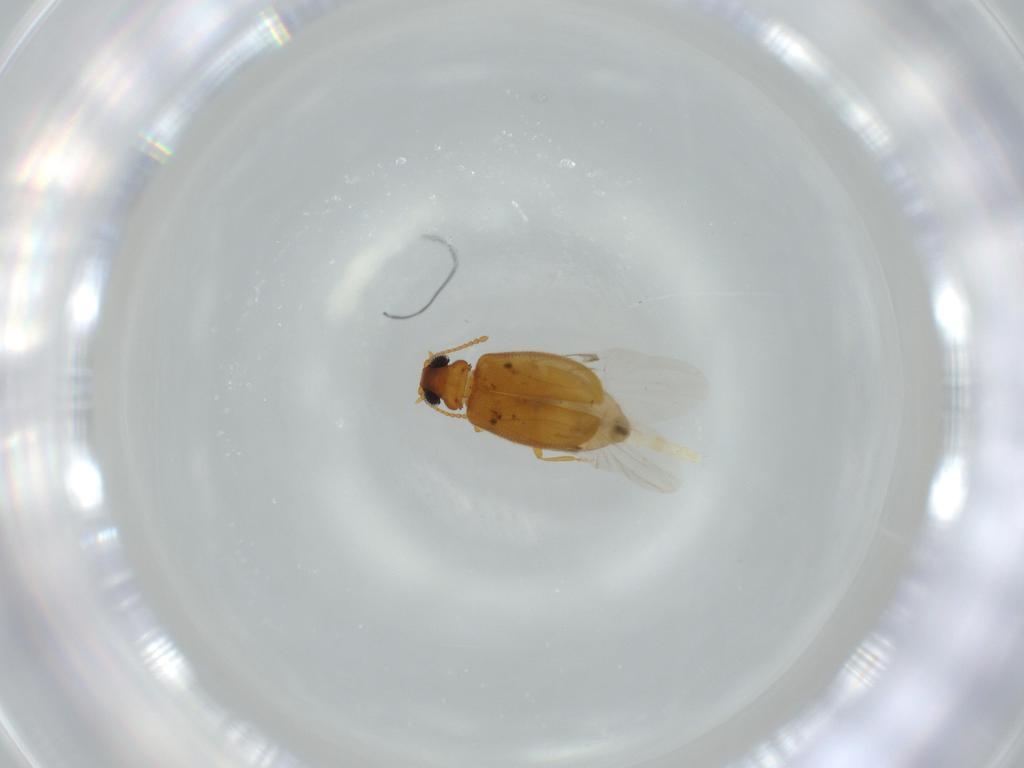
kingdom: Animalia
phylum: Arthropoda
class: Insecta
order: Coleoptera
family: Aderidae
